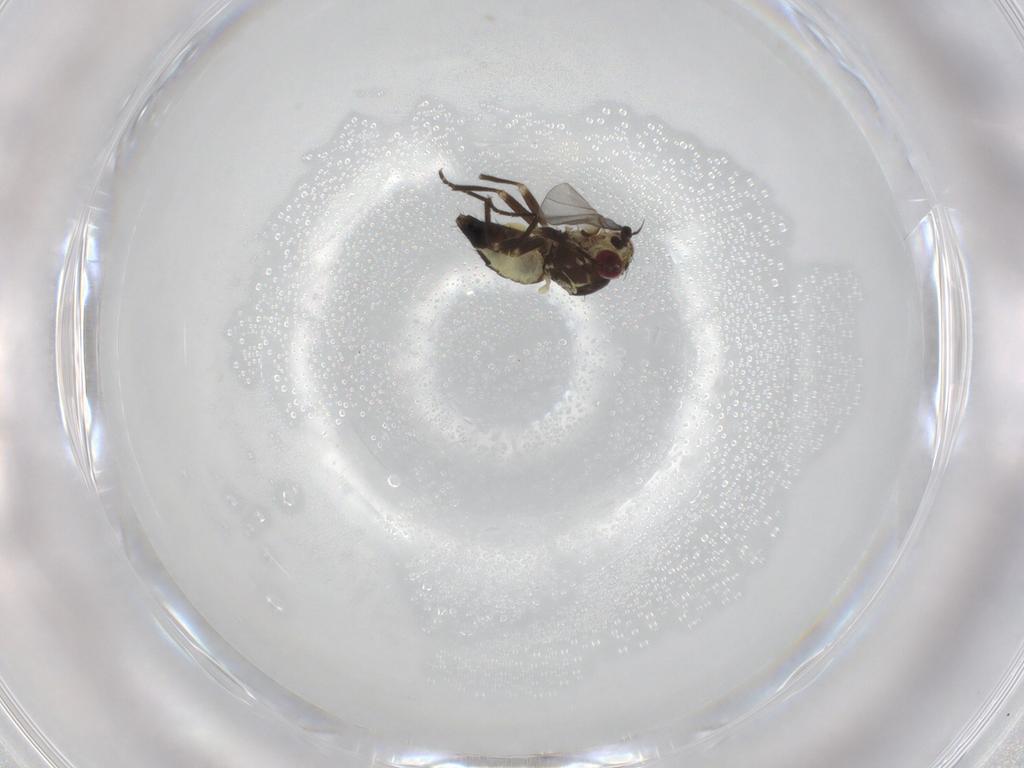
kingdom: Animalia
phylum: Arthropoda
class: Insecta
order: Diptera
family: Agromyzidae
